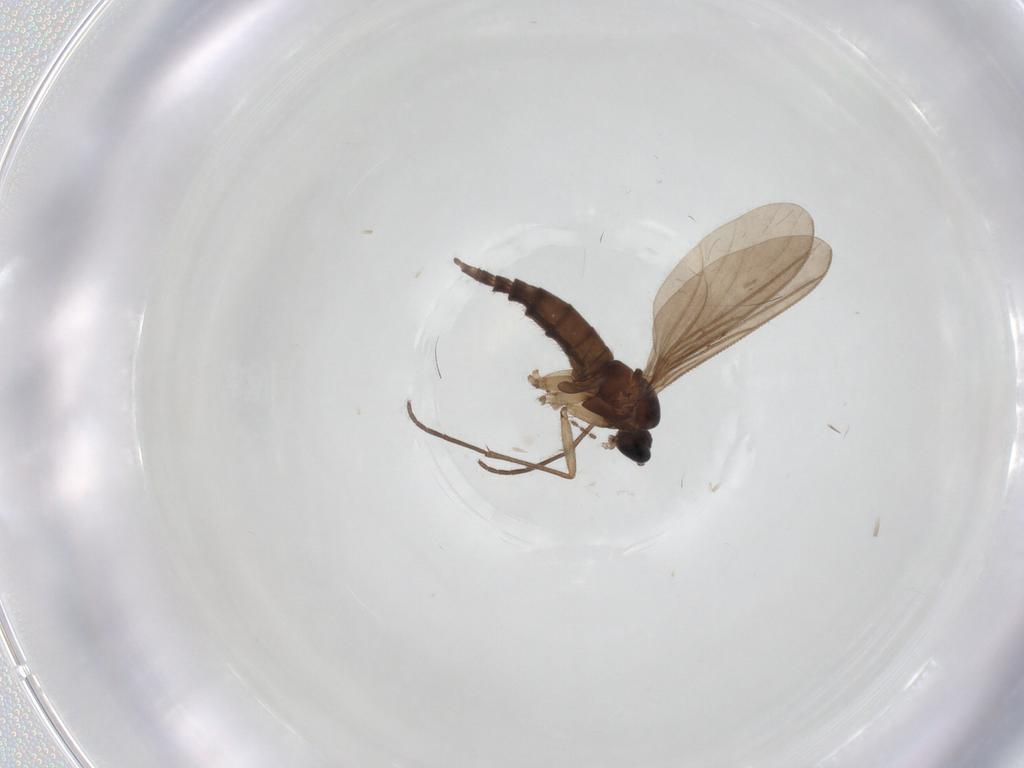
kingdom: Animalia
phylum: Arthropoda
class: Insecta
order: Diptera
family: Sciaridae
